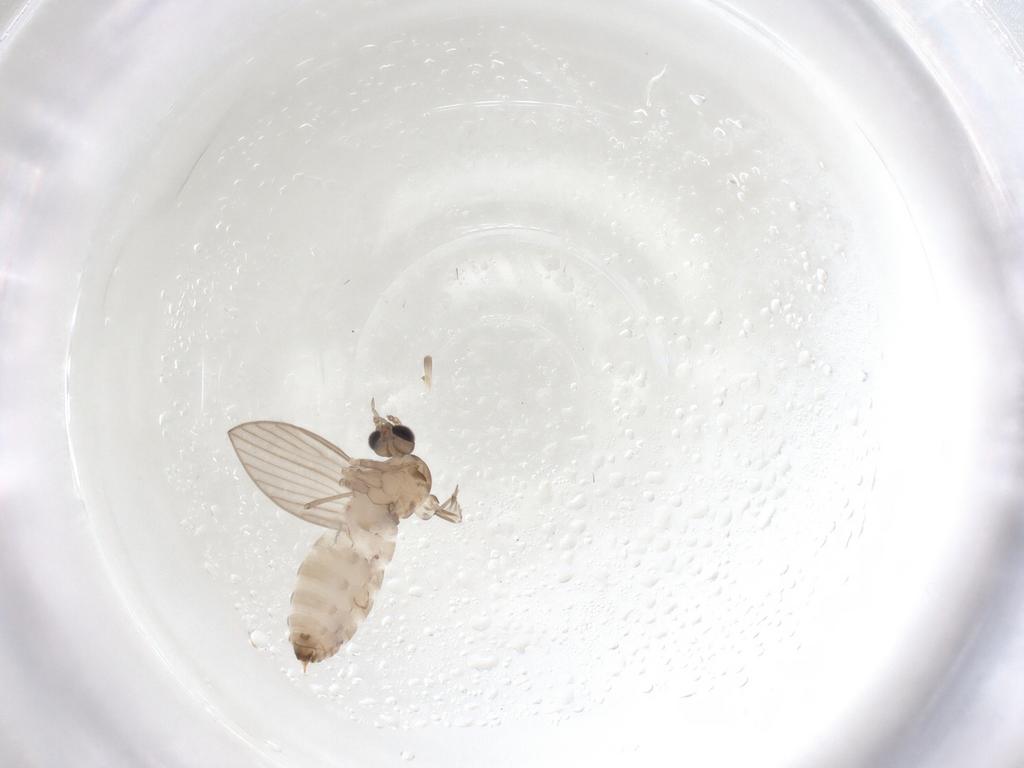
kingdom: Animalia
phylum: Arthropoda
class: Insecta
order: Diptera
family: Psychodidae
